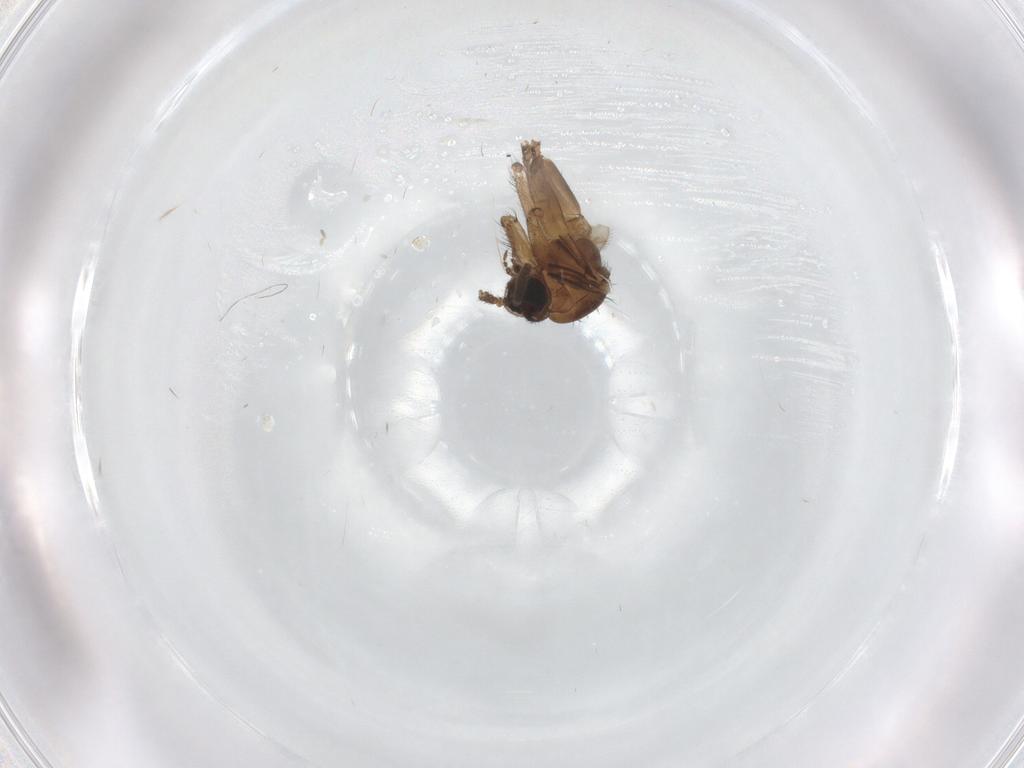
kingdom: Animalia
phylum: Arthropoda
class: Insecta
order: Diptera
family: Keroplatidae
